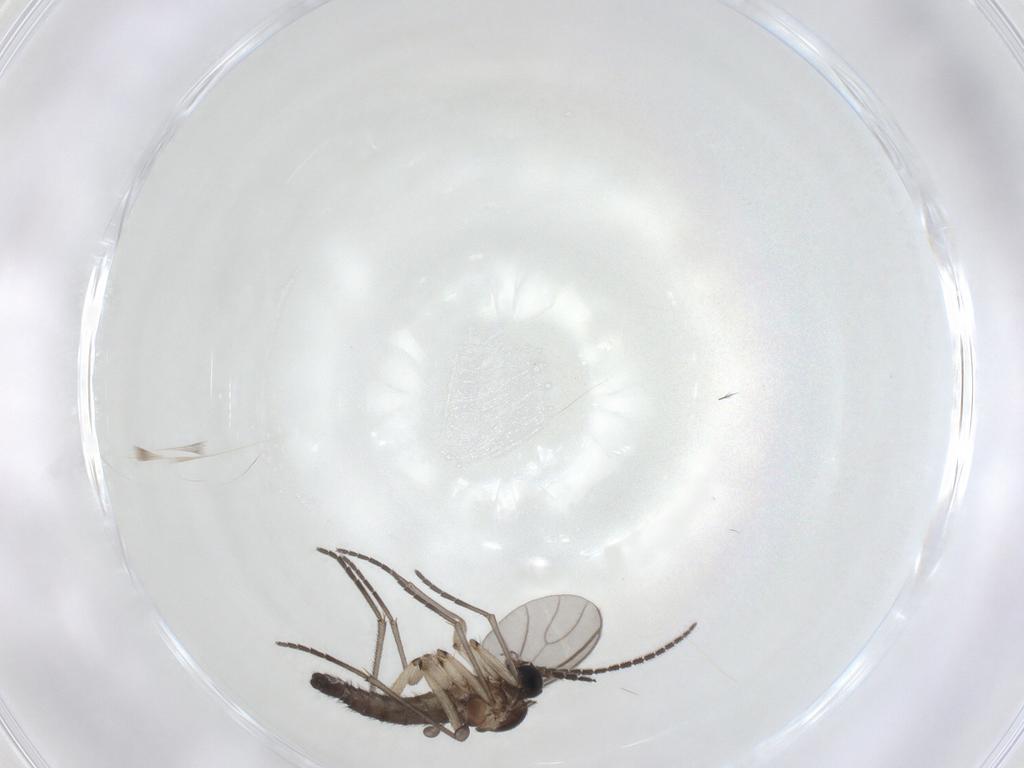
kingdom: Animalia
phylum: Arthropoda
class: Insecta
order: Diptera
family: Sciaridae
